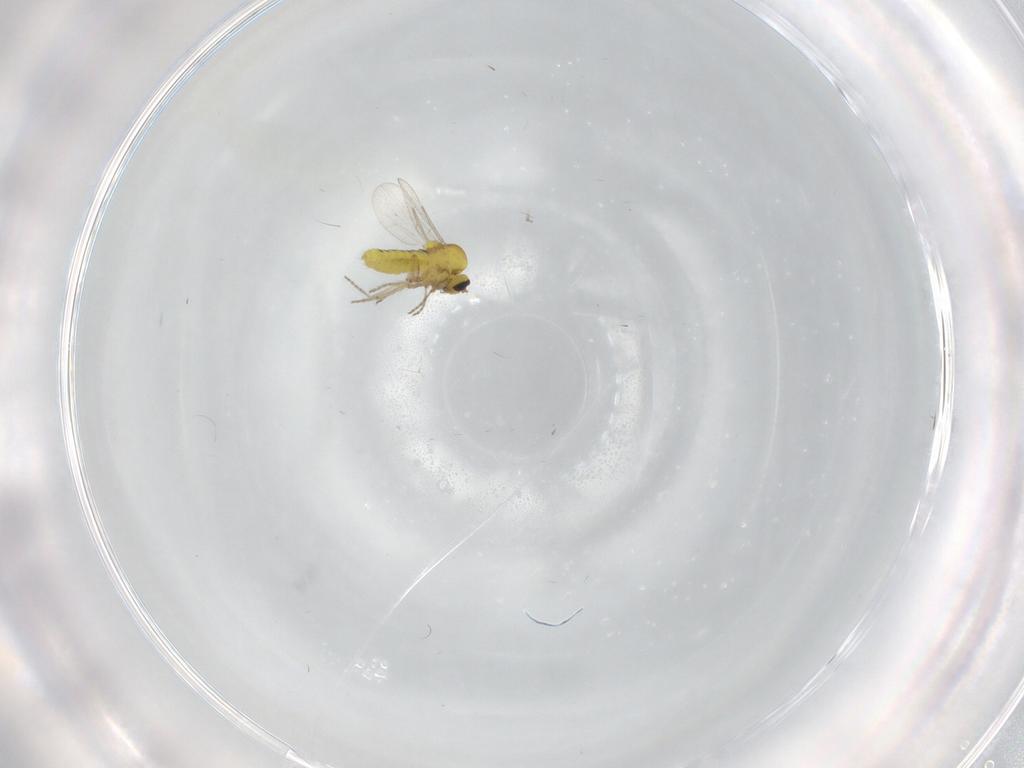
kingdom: Animalia
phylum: Arthropoda
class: Insecta
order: Diptera
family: Ceratopogonidae
